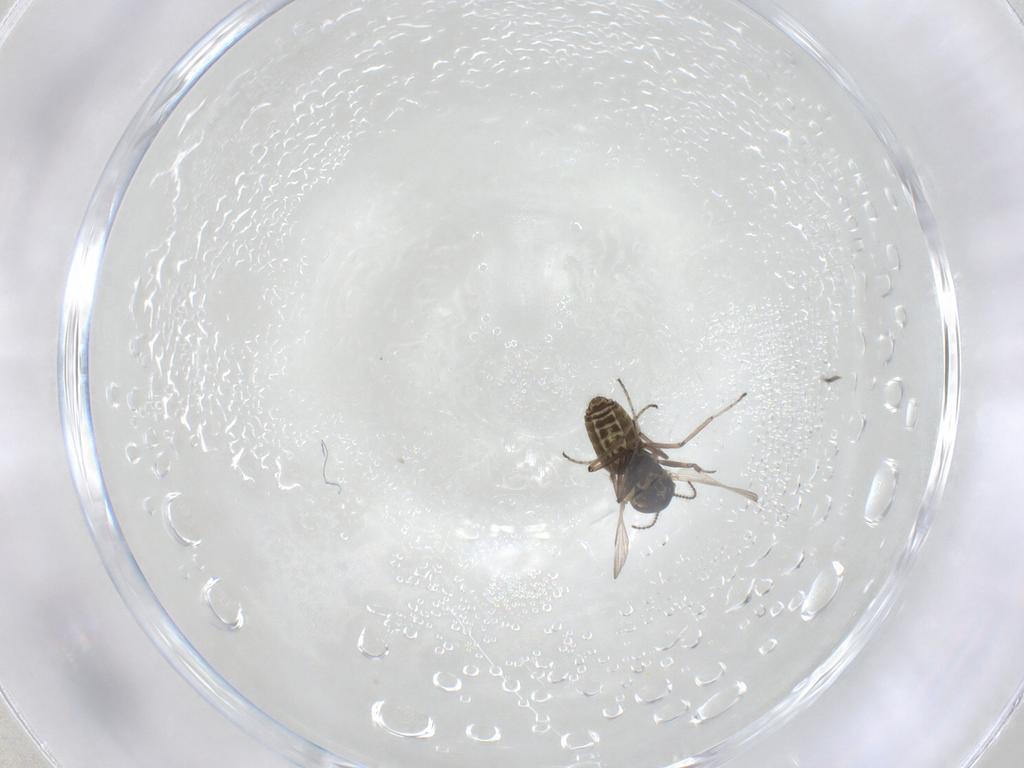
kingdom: Animalia
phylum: Arthropoda
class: Insecta
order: Diptera
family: Ceratopogonidae
